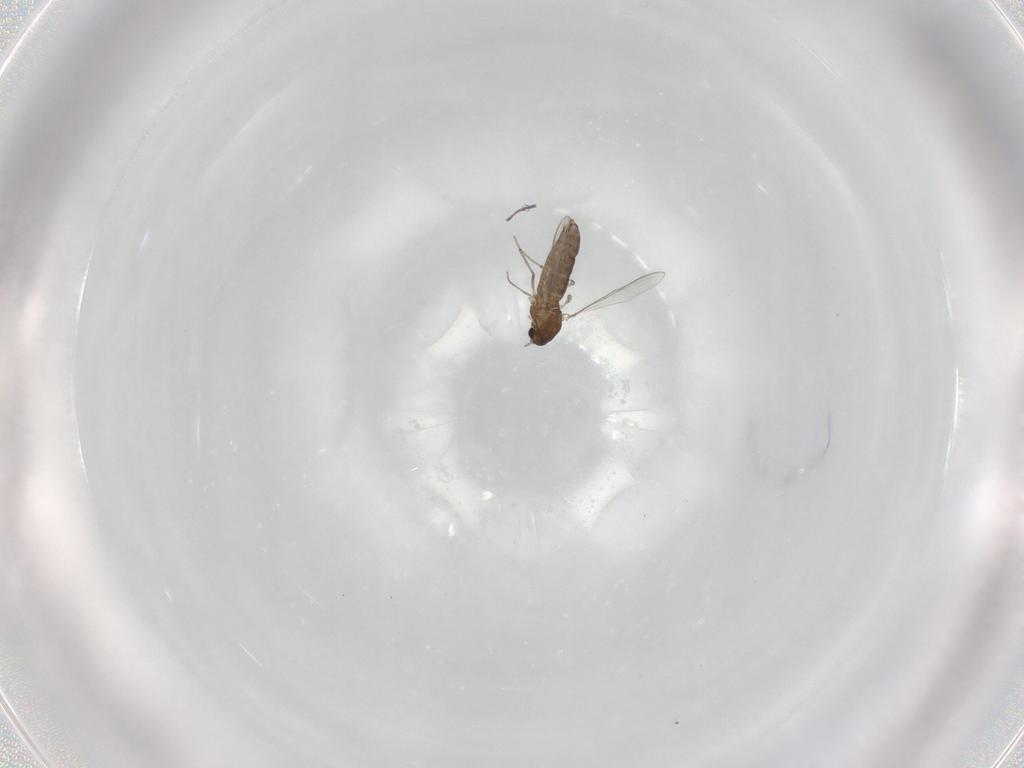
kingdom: Animalia
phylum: Arthropoda
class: Insecta
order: Diptera
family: Chironomidae
